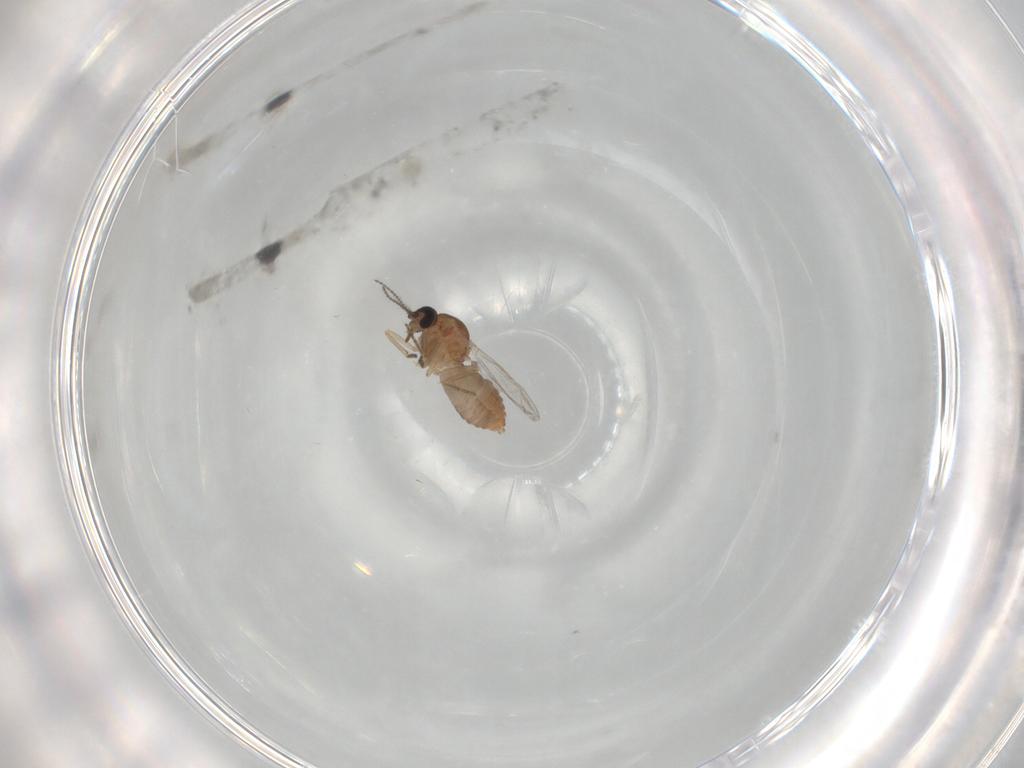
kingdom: Animalia
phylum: Arthropoda
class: Insecta
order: Diptera
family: Ceratopogonidae
